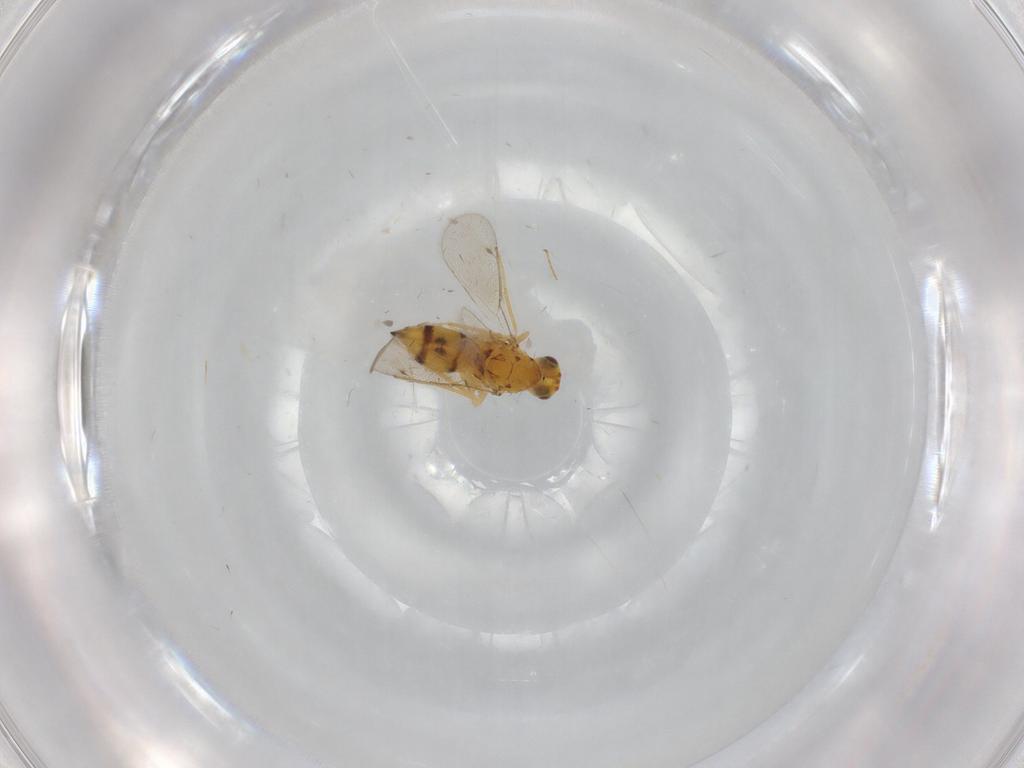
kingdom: Animalia
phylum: Arthropoda
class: Insecta
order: Hymenoptera
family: Eulophidae
